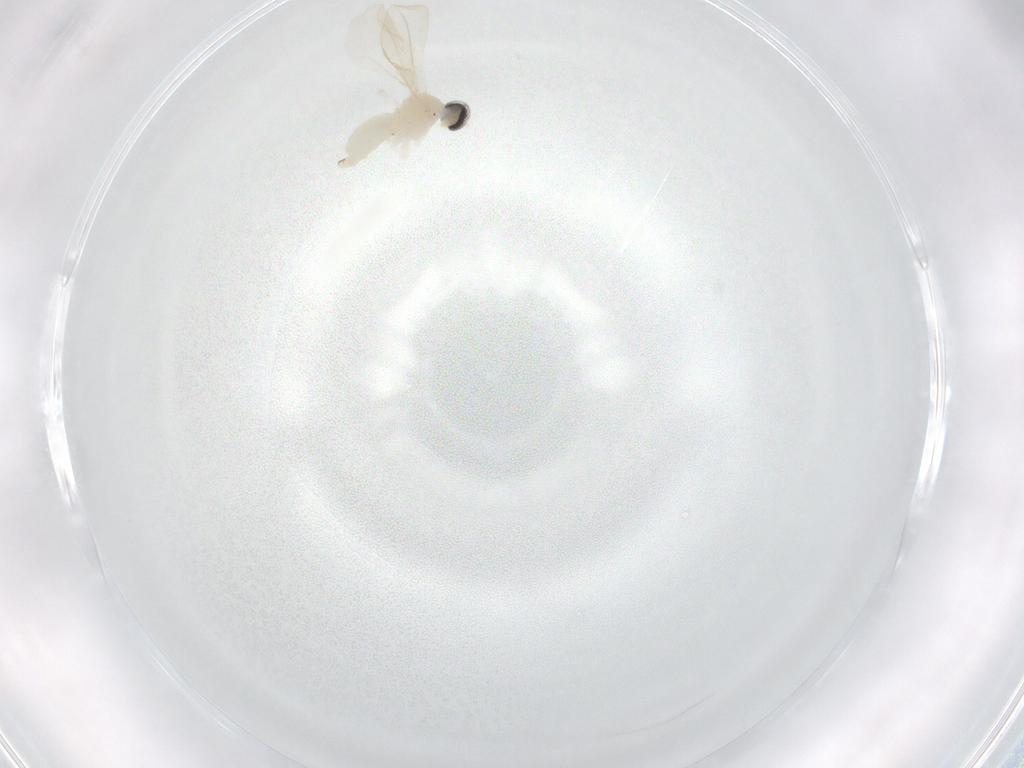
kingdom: Animalia
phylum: Arthropoda
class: Insecta
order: Diptera
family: Cecidomyiidae
